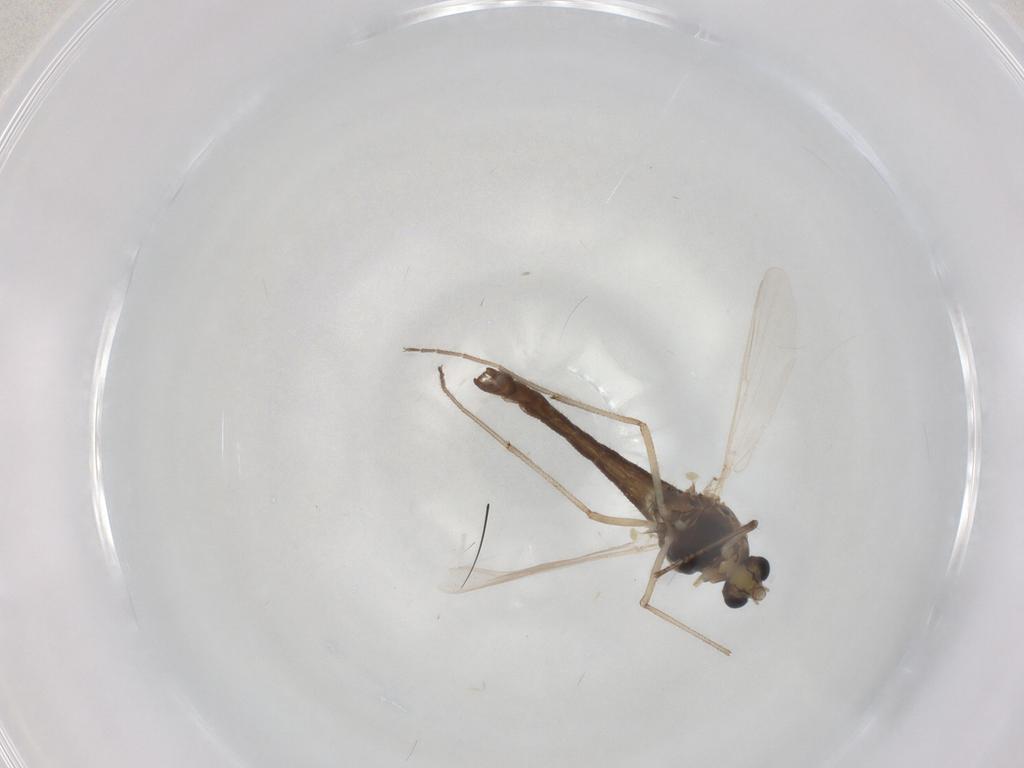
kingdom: Animalia
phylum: Arthropoda
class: Insecta
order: Diptera
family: Chironomidae
